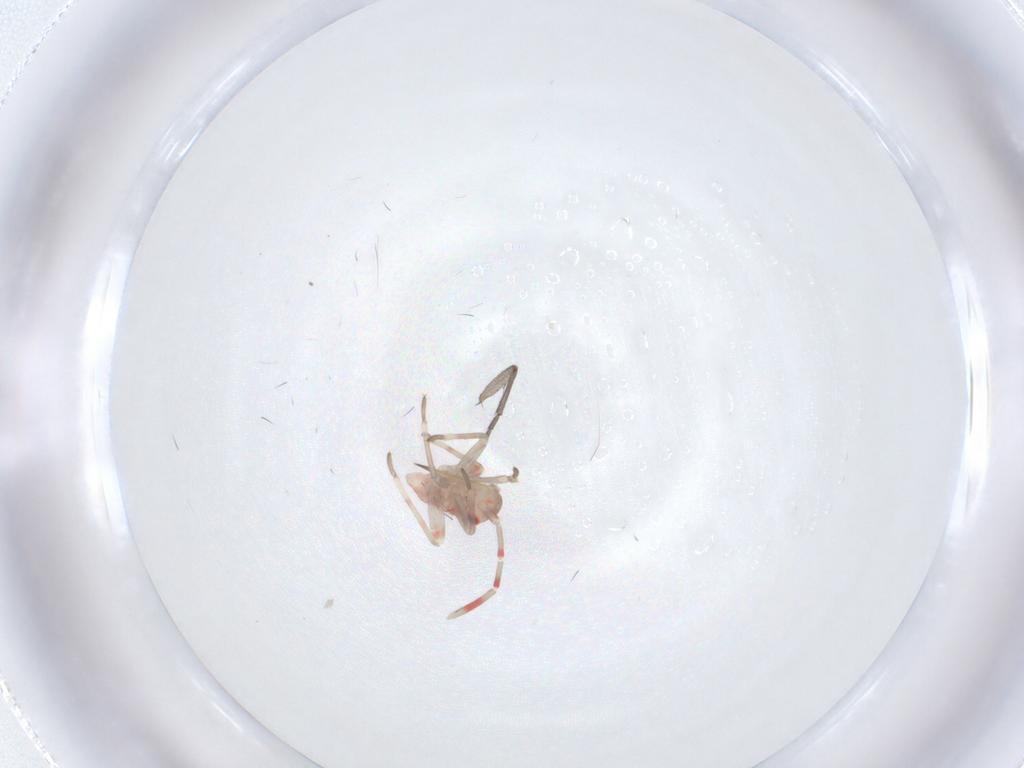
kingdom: Animalia
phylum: Arthropoda
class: Insecta
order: Hemiptera
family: Miridae
